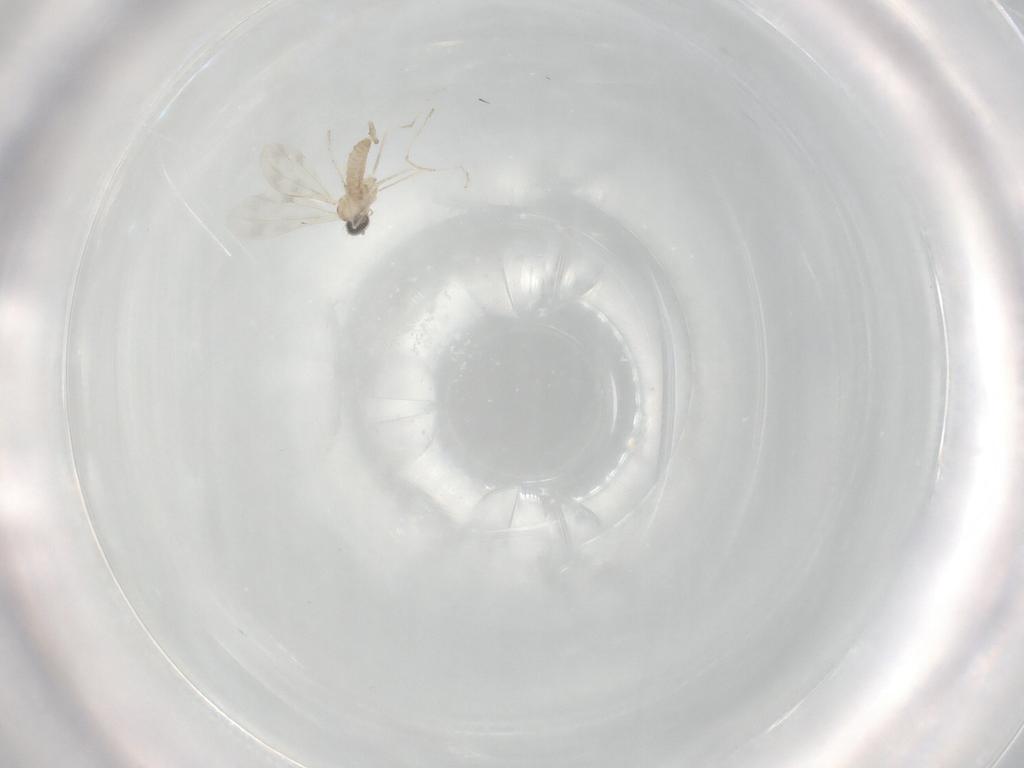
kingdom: Animalia
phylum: Arthropoda
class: Insecta
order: Diptera
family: Cecidomyiidae
